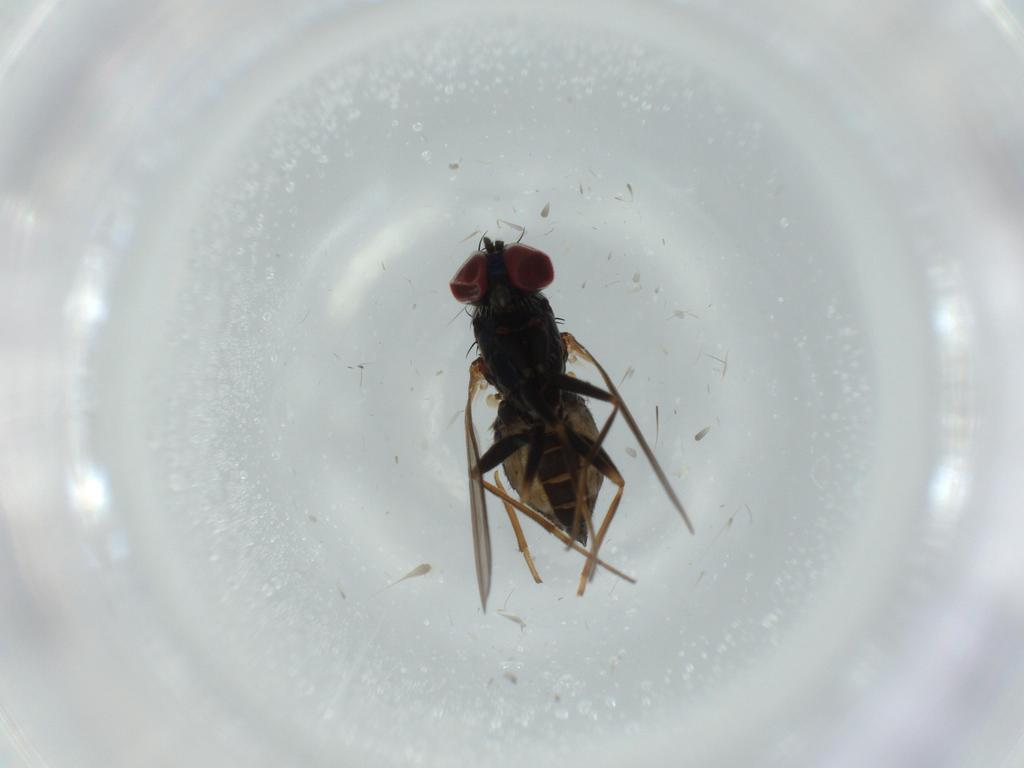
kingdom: Animalia
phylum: Arthropoda
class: Insecta
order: Diptera
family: Dolichopodidae
